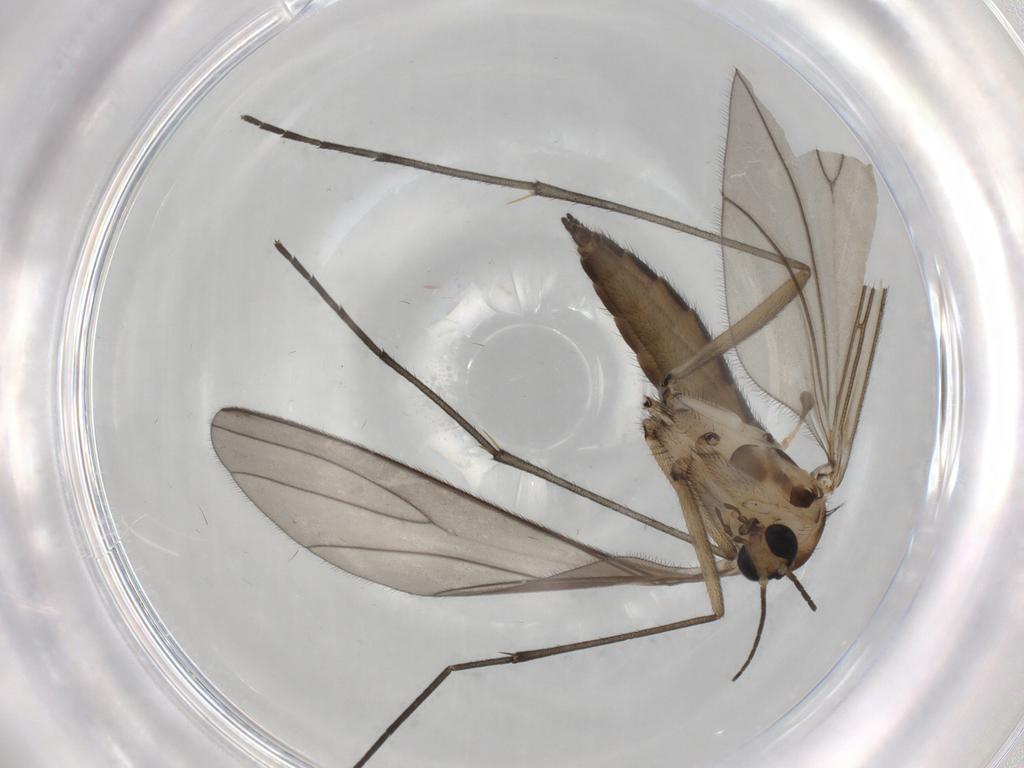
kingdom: Animalia
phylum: Arthropoda
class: Insecta
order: Diptera
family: Sciaridae
